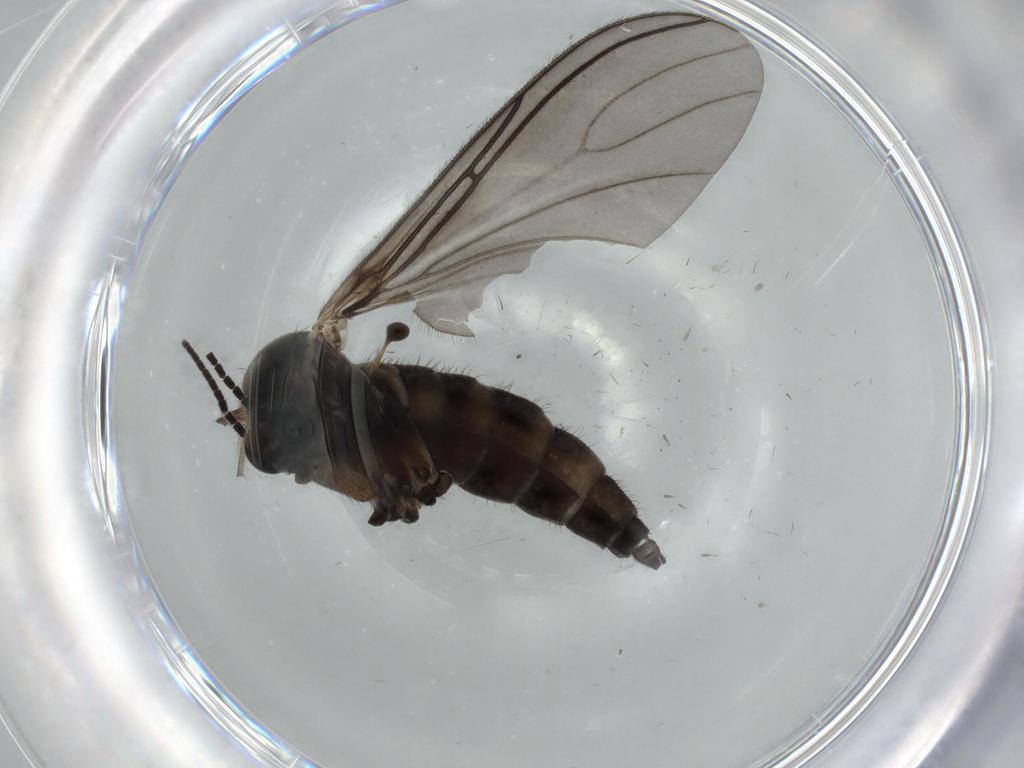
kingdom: Animalia
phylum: Arthropoda
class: Insecta
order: Diptera
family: Sciaridae
